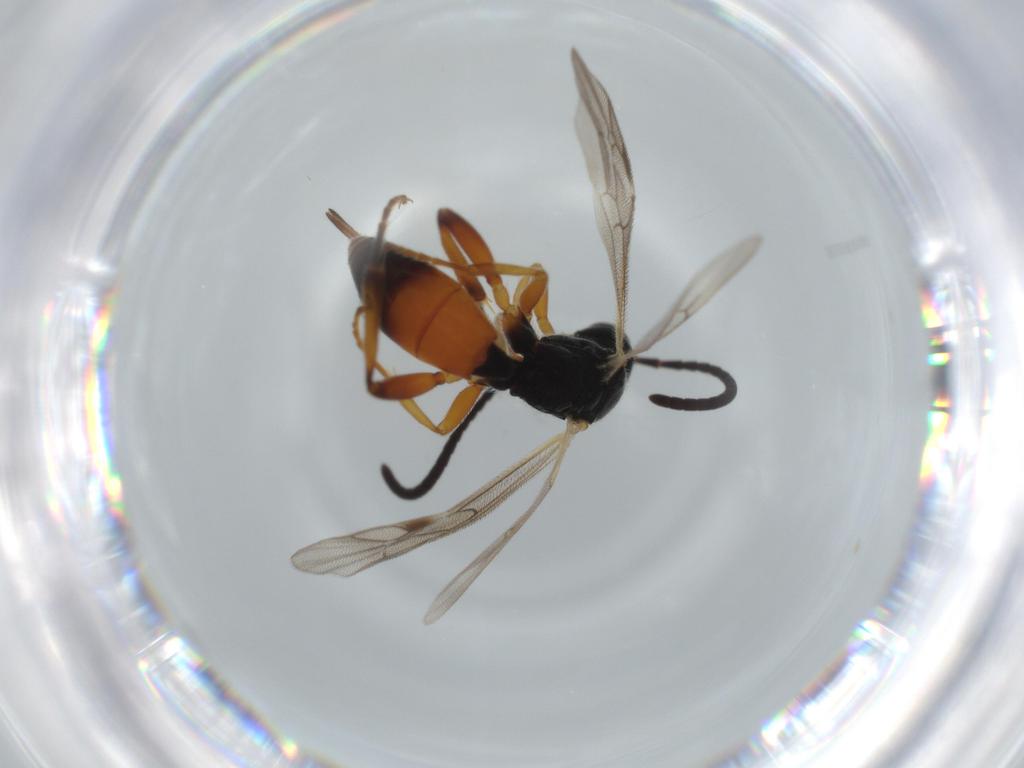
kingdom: Animalia
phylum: Arthropoda
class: Insecta
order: Hymenoptera
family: Ichneumonidae
